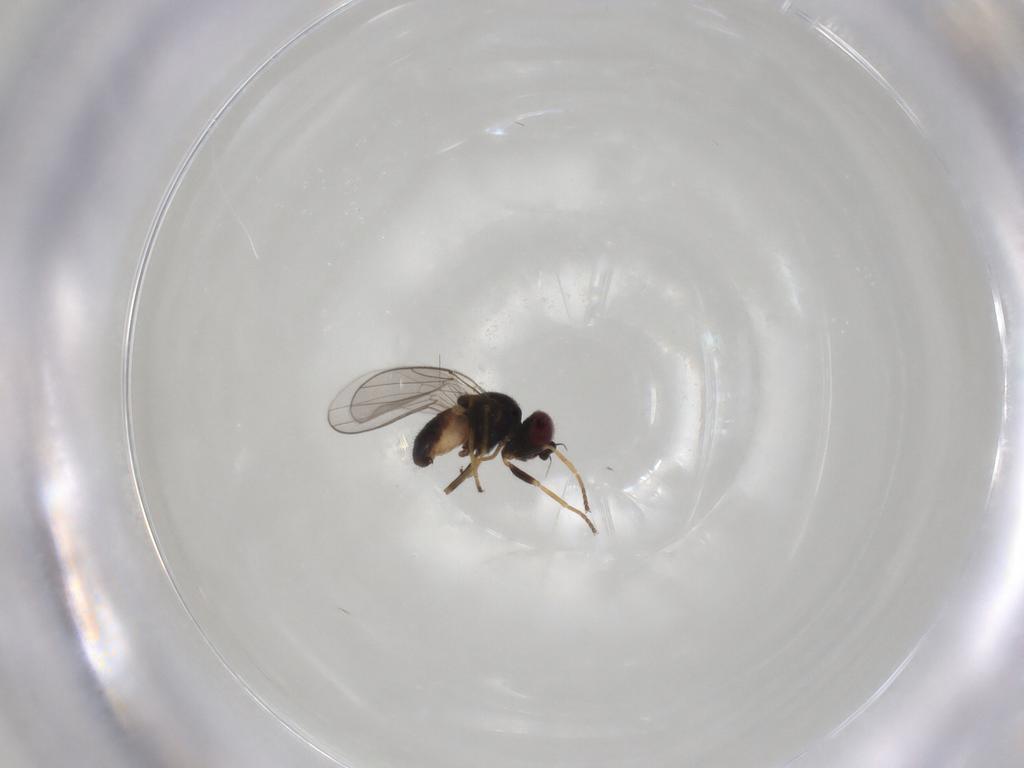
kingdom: Animalia
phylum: Arthropoda
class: Insecta
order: Diptera
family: Chloropidae
